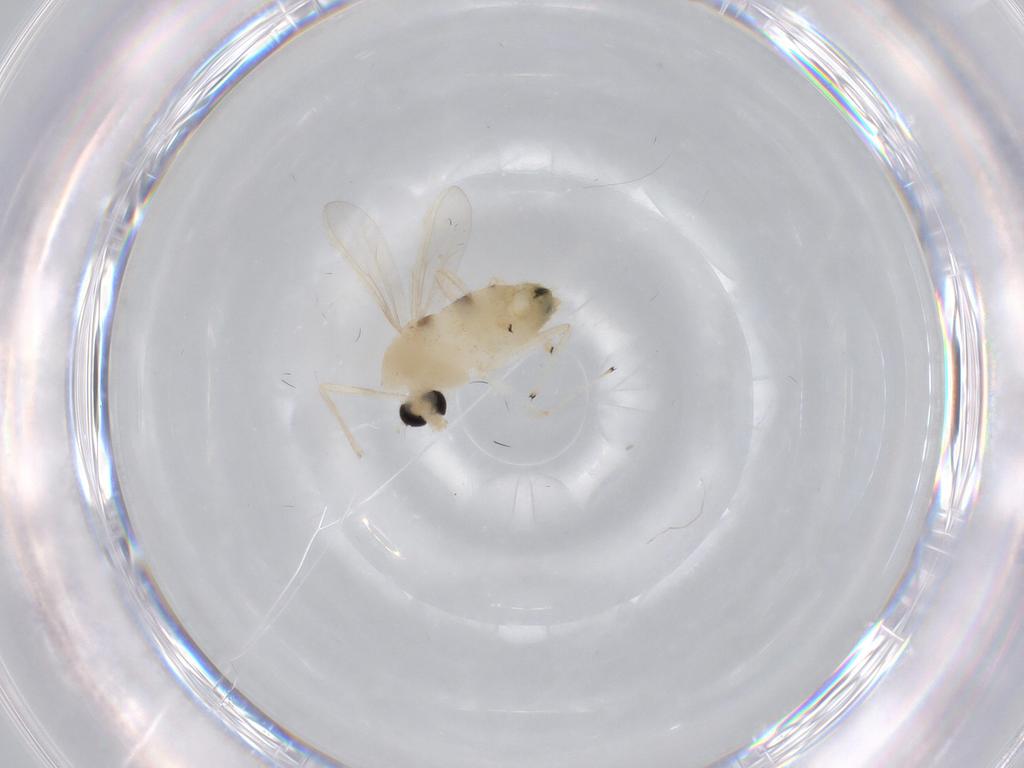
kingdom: Animalia
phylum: Arthropoda
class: Insecta
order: Diptera
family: Chironomidae
